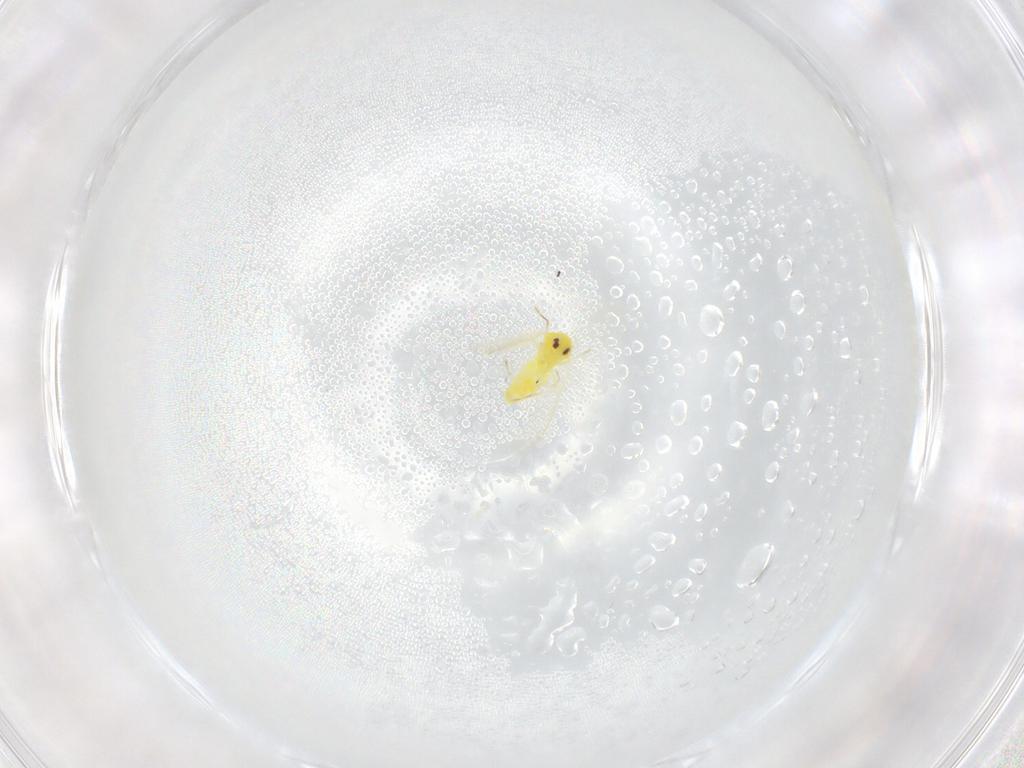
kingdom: Animalia
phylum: Arthropoda
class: Insecta
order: Hemiptera
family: Aleyrodidae
